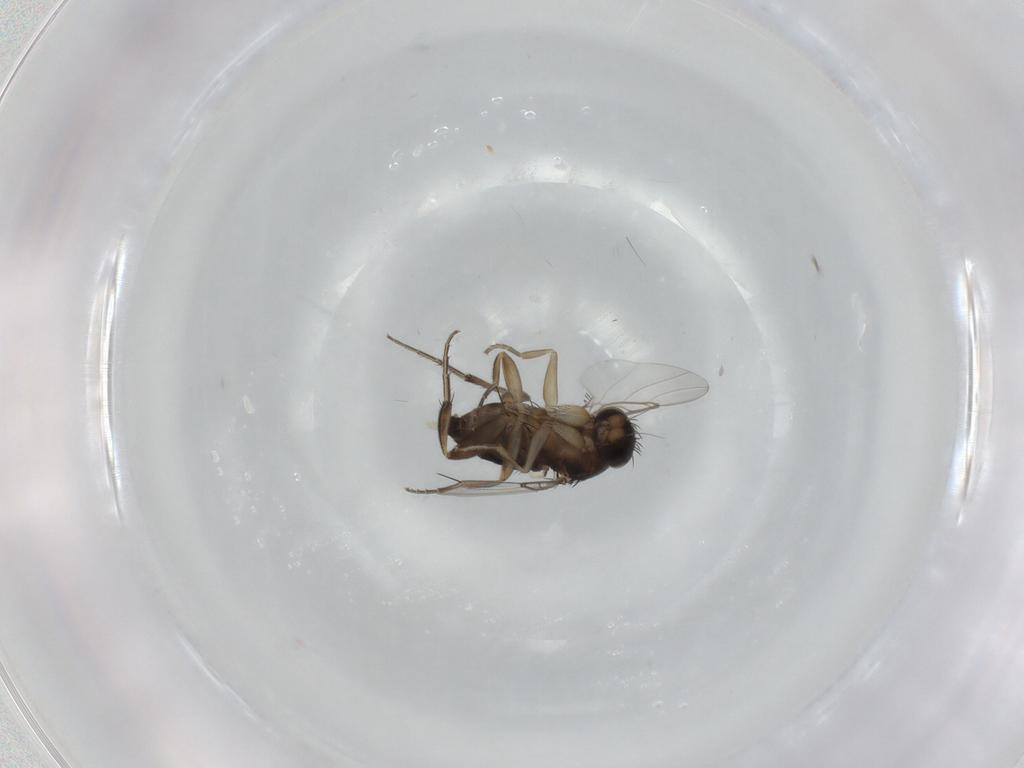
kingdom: Animalia
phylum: Arthropoda
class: Insecta
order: Diptera
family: Phoridae
